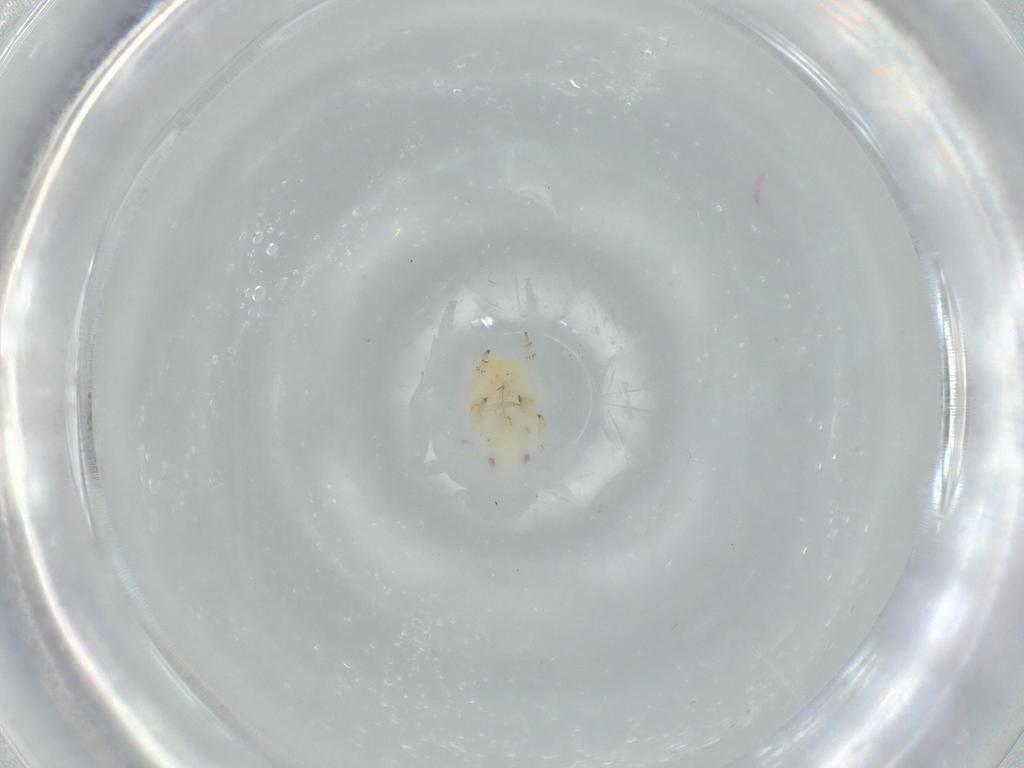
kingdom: Animalia
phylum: Arthropoda
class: Insecta
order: Hemiptera
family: Flatidae
